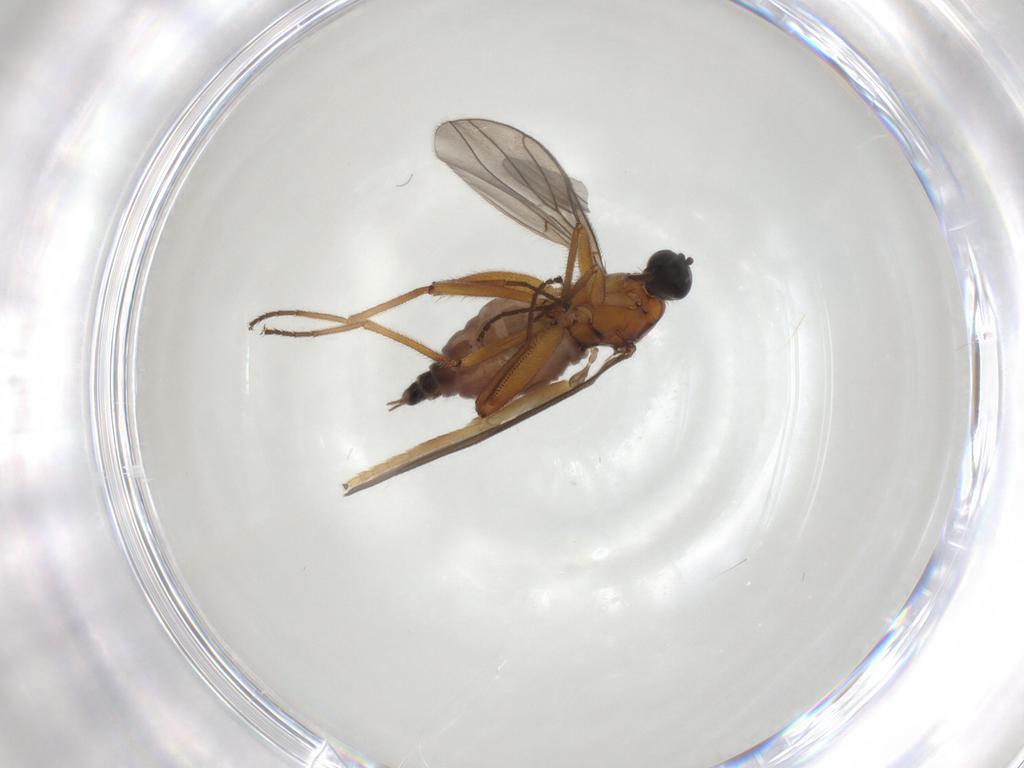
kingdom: Animalia
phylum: Arthropoda
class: Insecta
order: Diptera
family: Hybotidae
